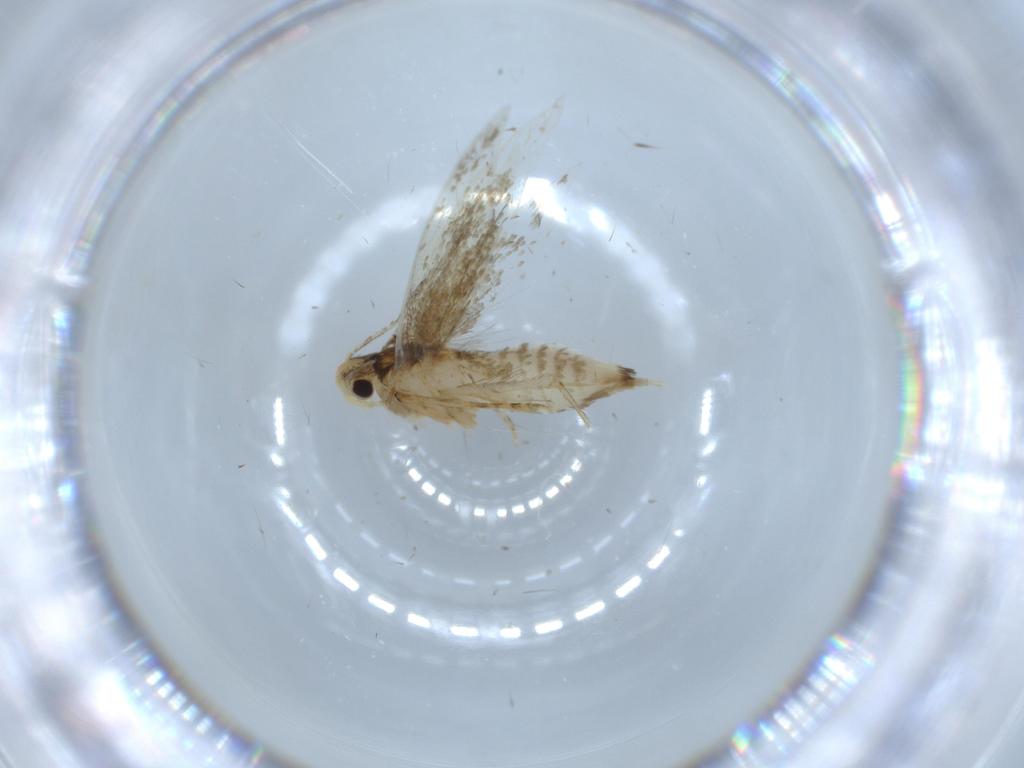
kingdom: Animalia
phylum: Arthropoda
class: Insecta
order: Lepidoptera
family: Tineidae
